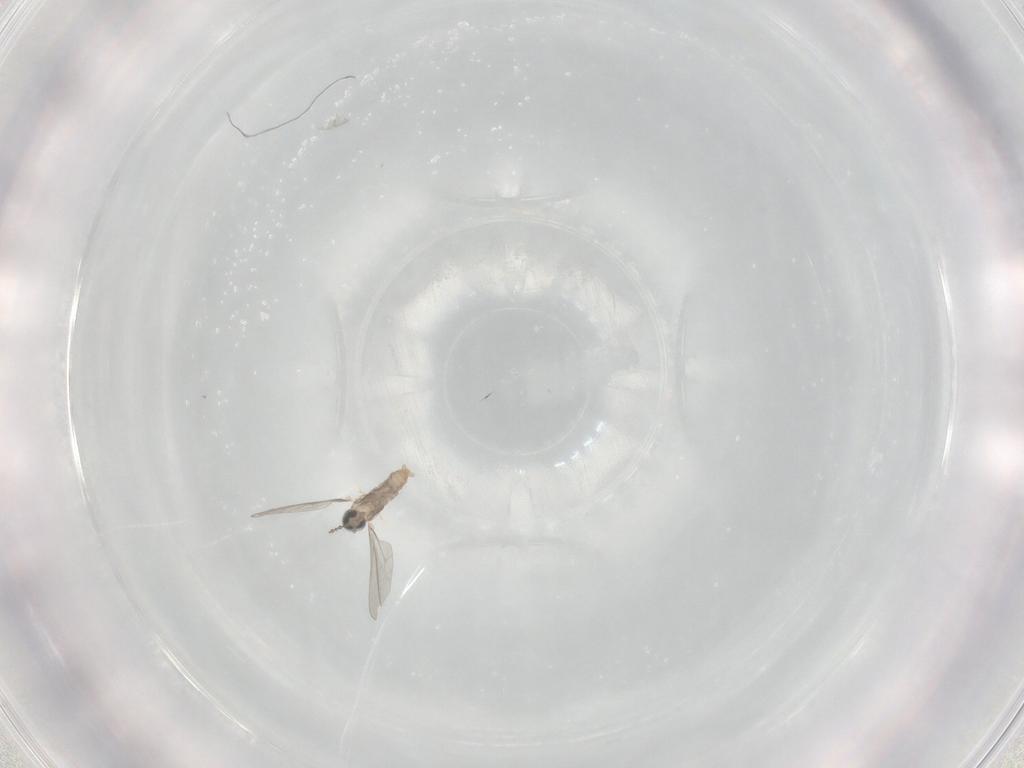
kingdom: Animalia
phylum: Arthropoda
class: Insecta
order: Diptera
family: Cecidomyiidae
